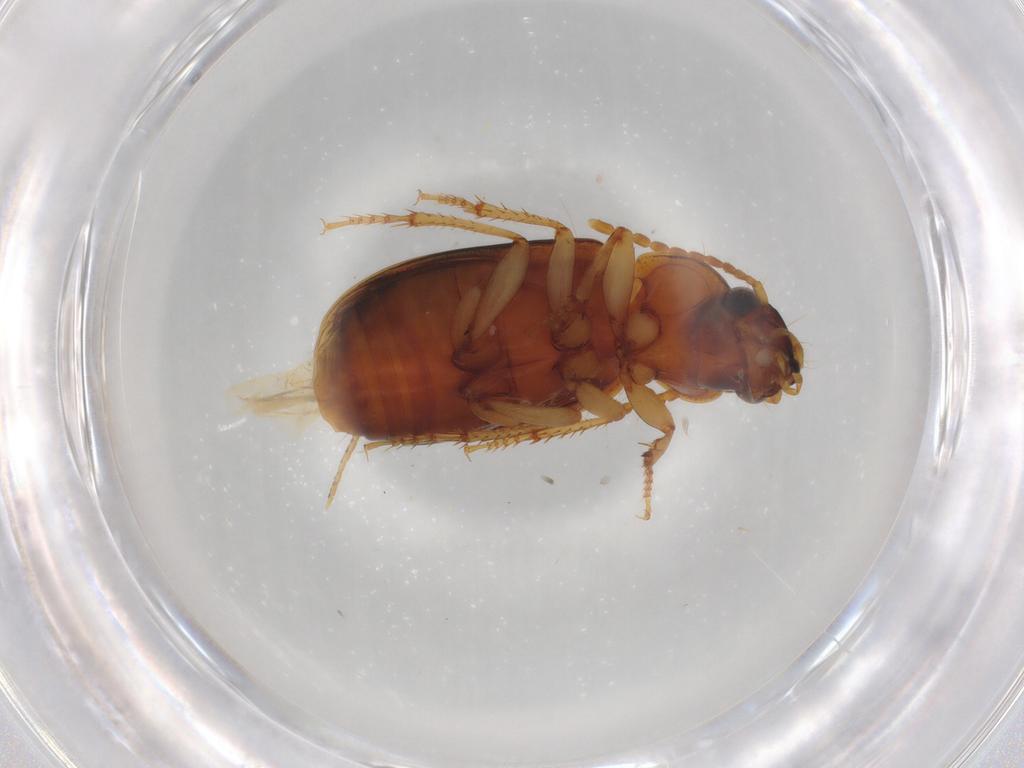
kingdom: Animalia
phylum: Arthropoda
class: Insecta
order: Coleoptera
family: Carabidae
